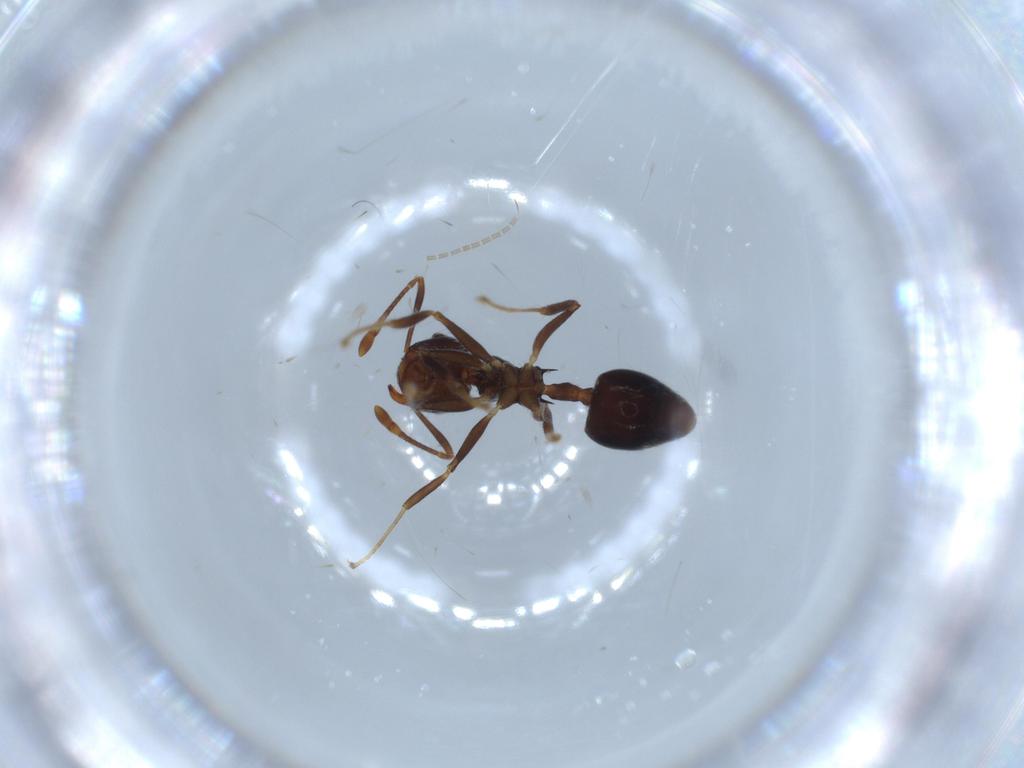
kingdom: Animalia
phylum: Arthropoda
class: Insecta
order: Hymenoptera
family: Formicidae
